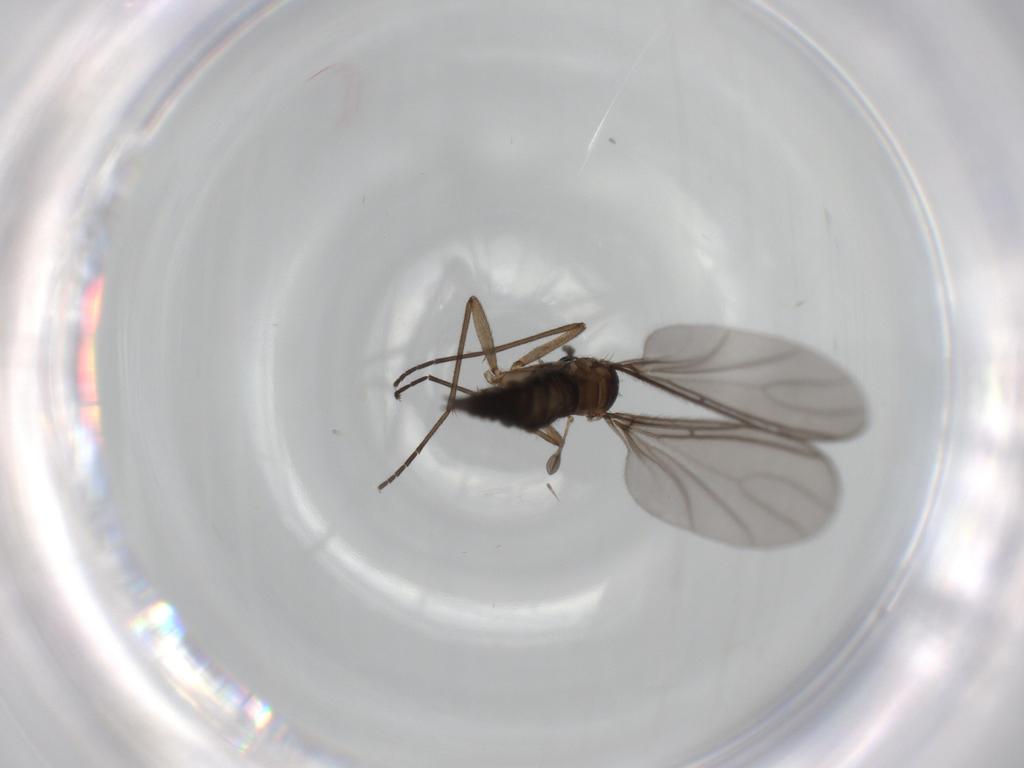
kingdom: Animalia
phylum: Arthropoda
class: Insecta
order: Diptera
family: Sciaridae
